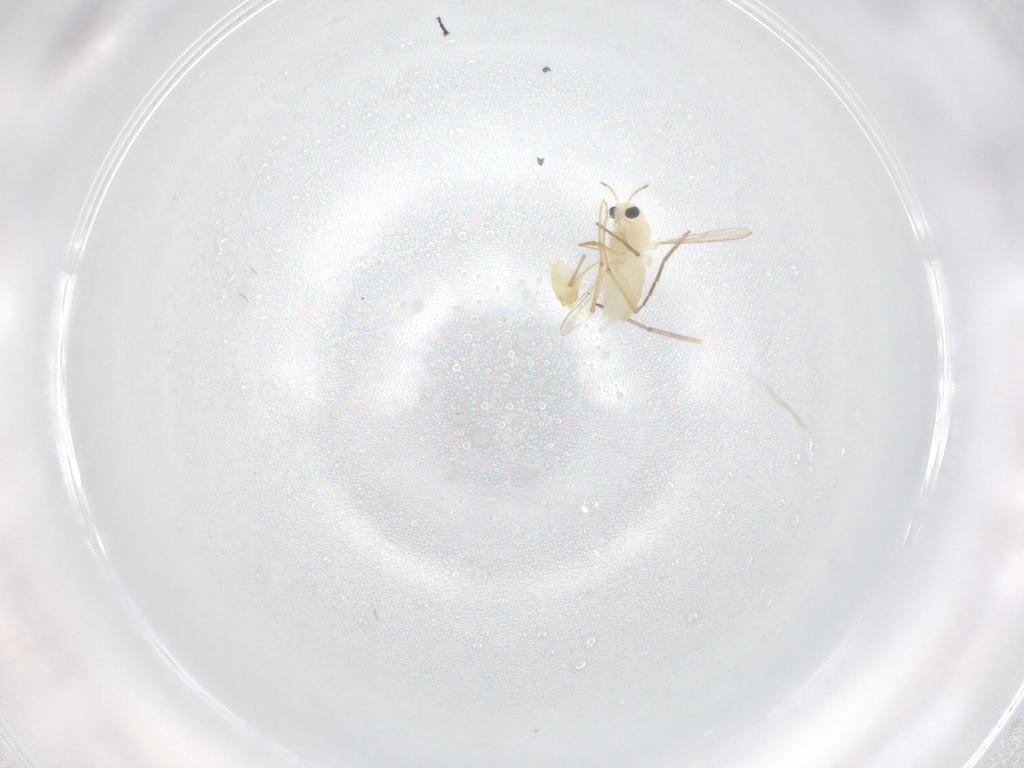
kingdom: Animalia
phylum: Arthropoda
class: Insecta
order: Diptera
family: Chironomidae
